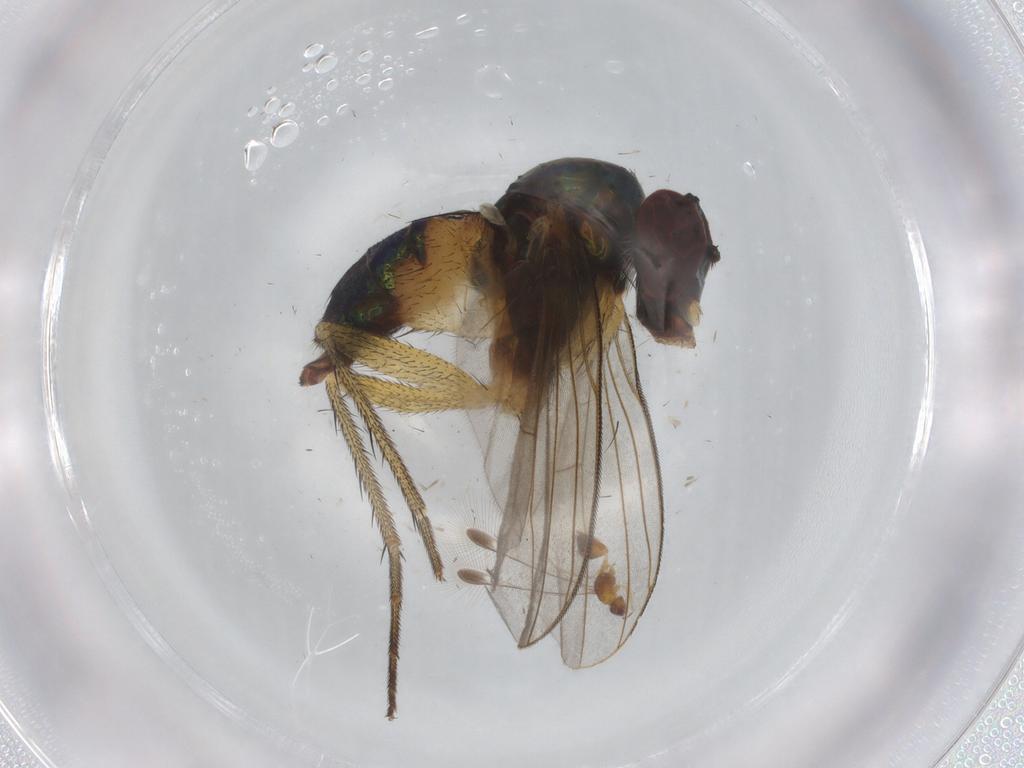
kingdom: Animalia
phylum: Arthropoda
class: Insecta
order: Diptera
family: Dolichopodidae
